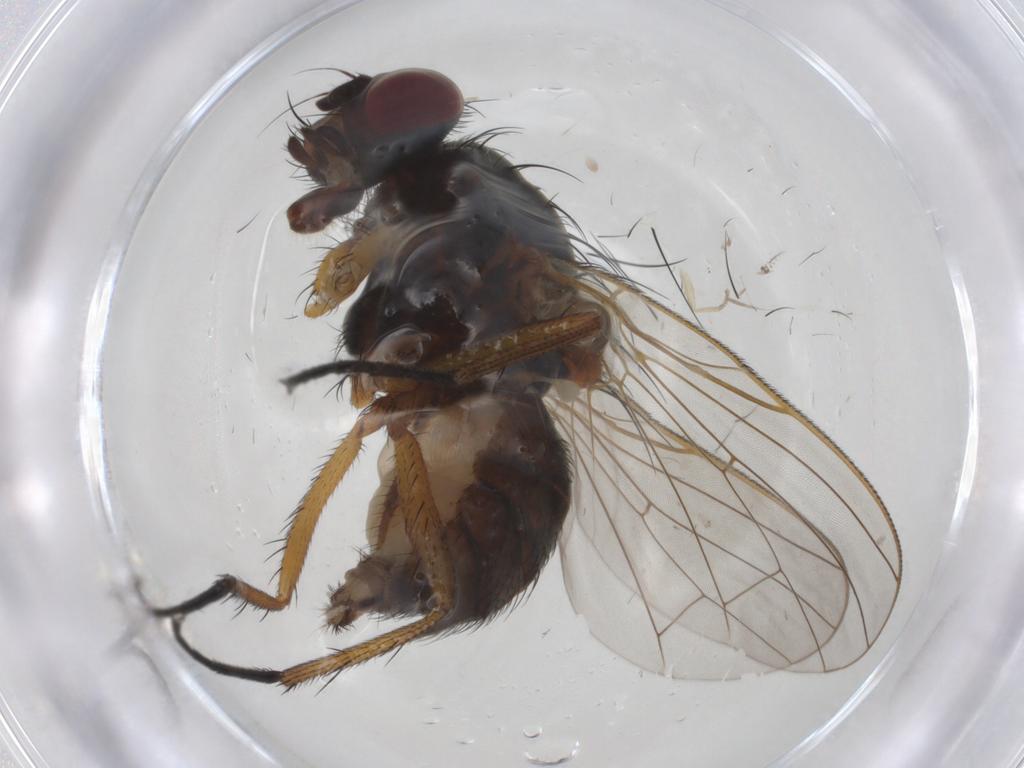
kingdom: Animalia
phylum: Arthropoda
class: Insecta
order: Diptera
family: Anthomyiidae
